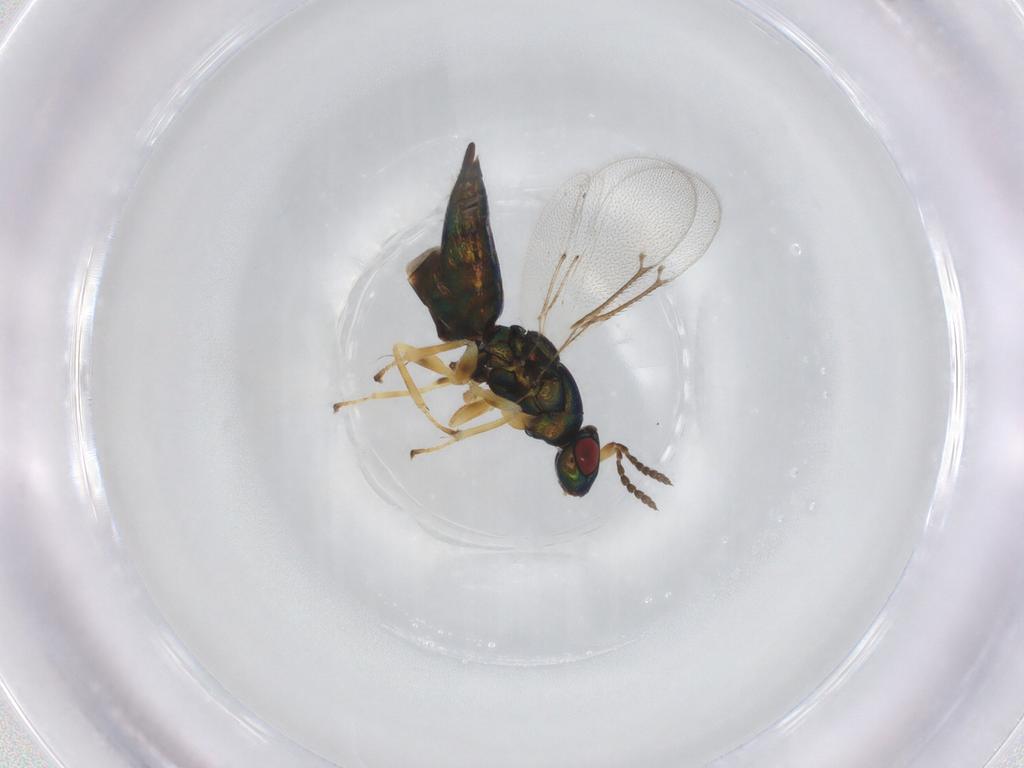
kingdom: Animalia
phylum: Arthropoda
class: Insecta
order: Hymenoptera
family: Eulophidae
